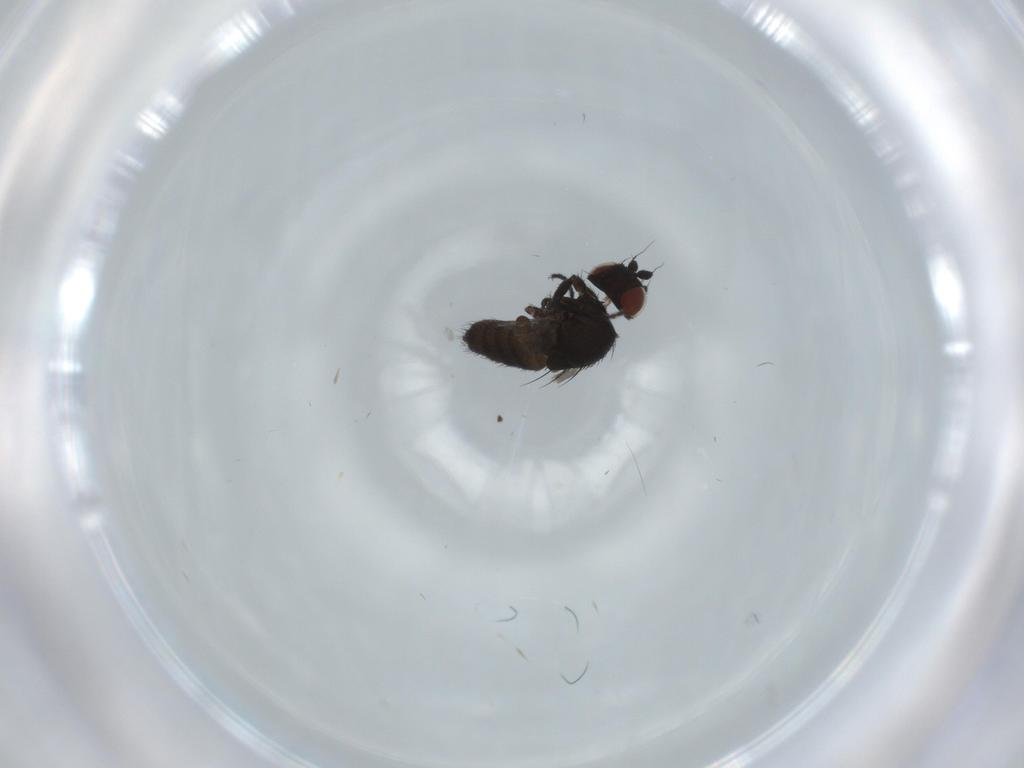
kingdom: Animalia
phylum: Arthropoda
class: Insecta
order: Diptera
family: Milichiidae
